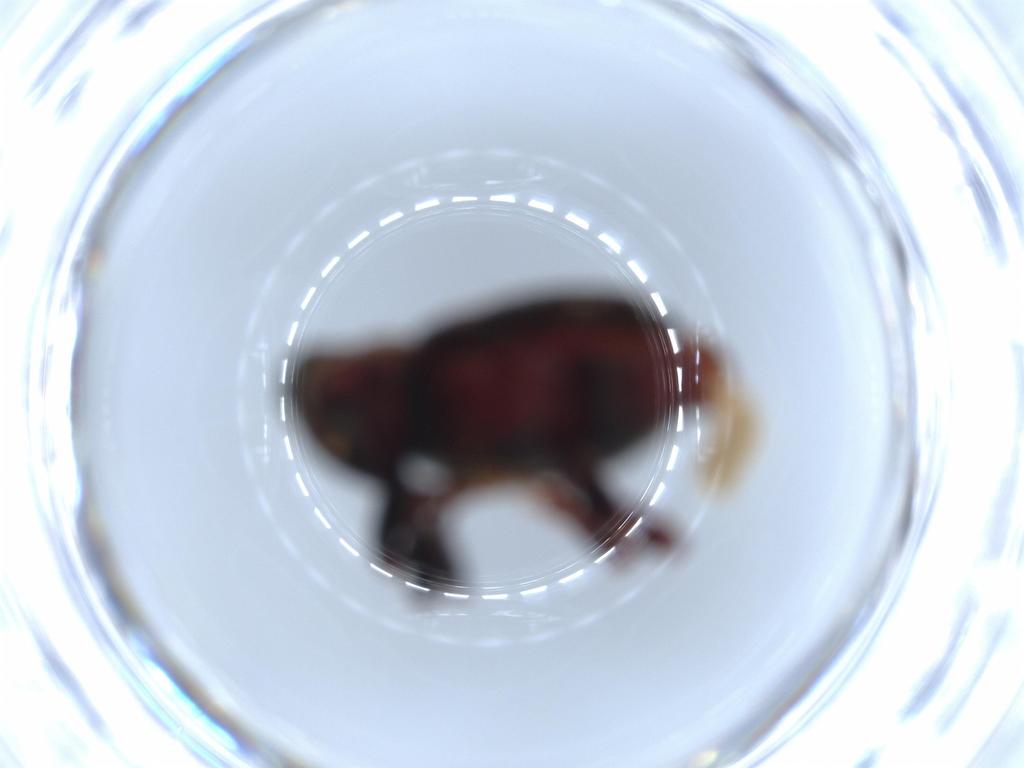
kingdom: Animalia
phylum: Arthropoda
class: Insecta
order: Coleoptera
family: Curculionidae
